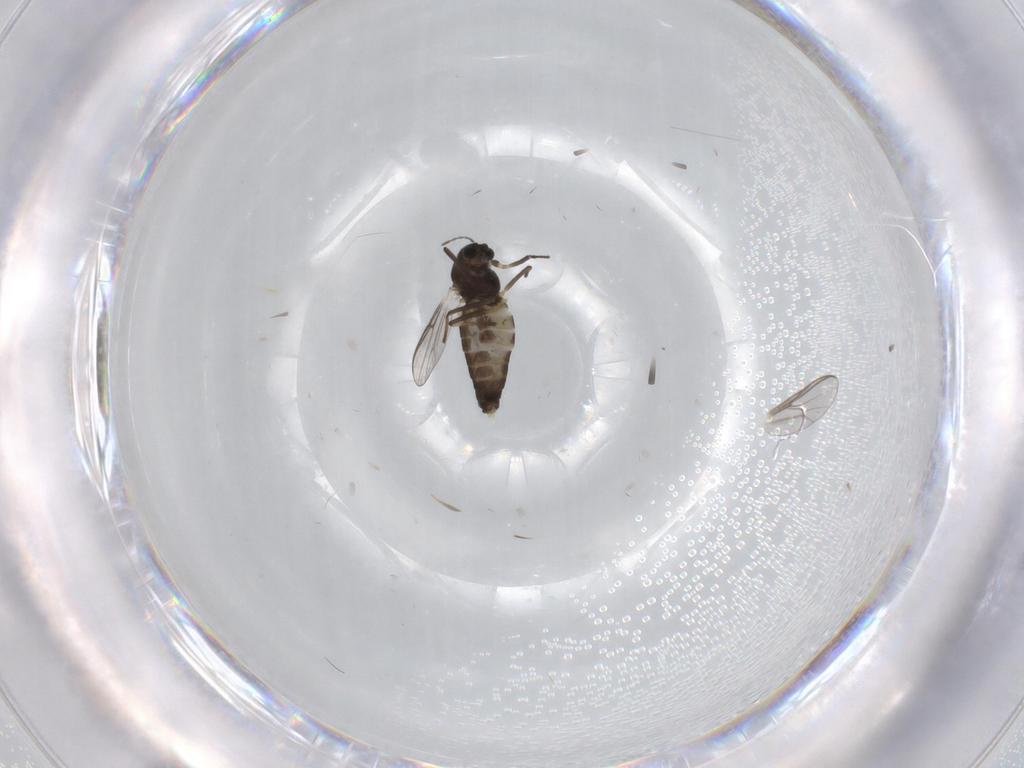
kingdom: Animalia
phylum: Arthropoda
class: Insecta
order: Diptera
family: Chironomidae
